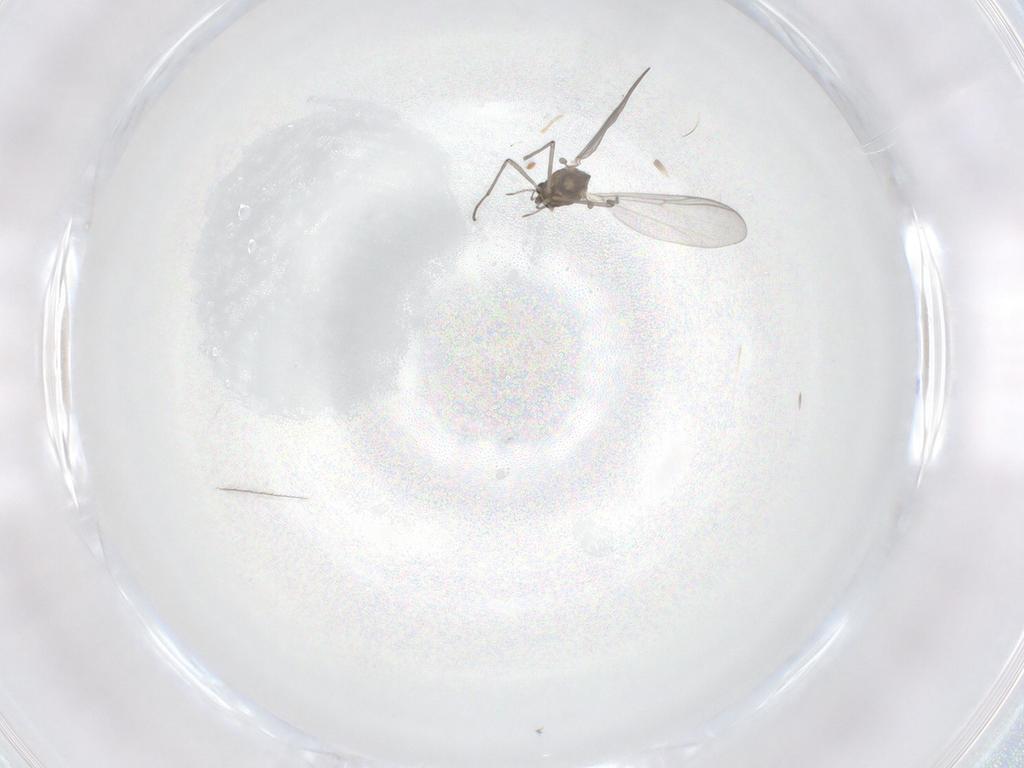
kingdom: Animalia
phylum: Arthropoda
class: Insecta
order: Diptera
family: Chironomidae
